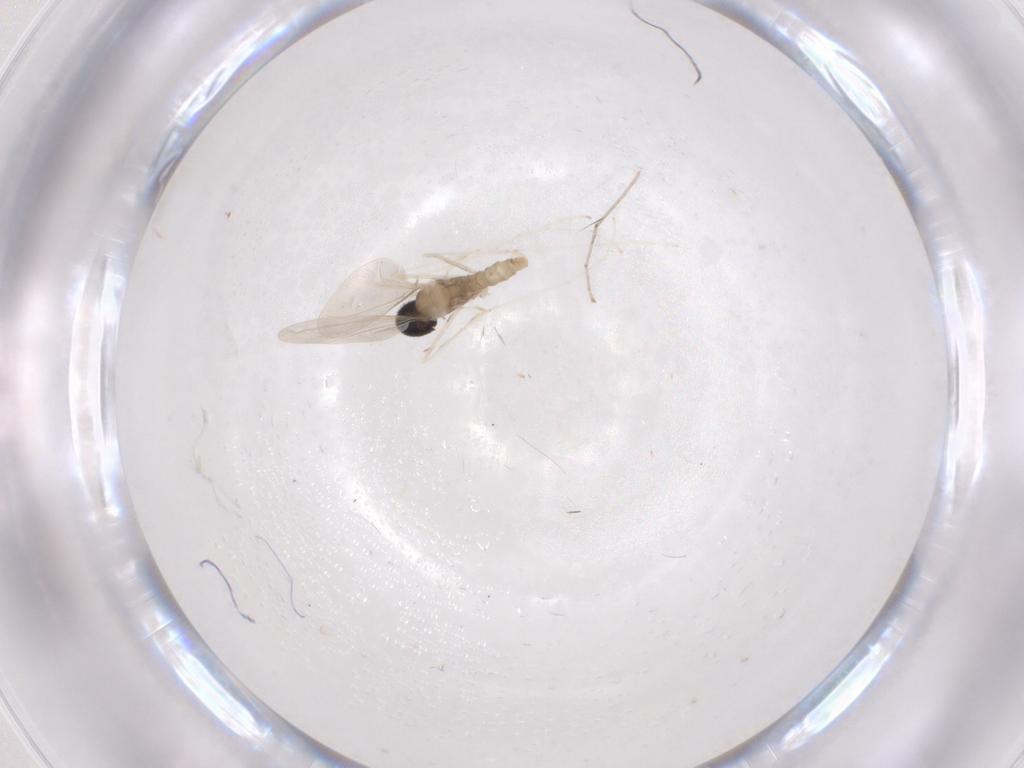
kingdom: Animalia
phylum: Arthropoda
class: Insecta
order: Diptera
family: Cecidomyiidae
